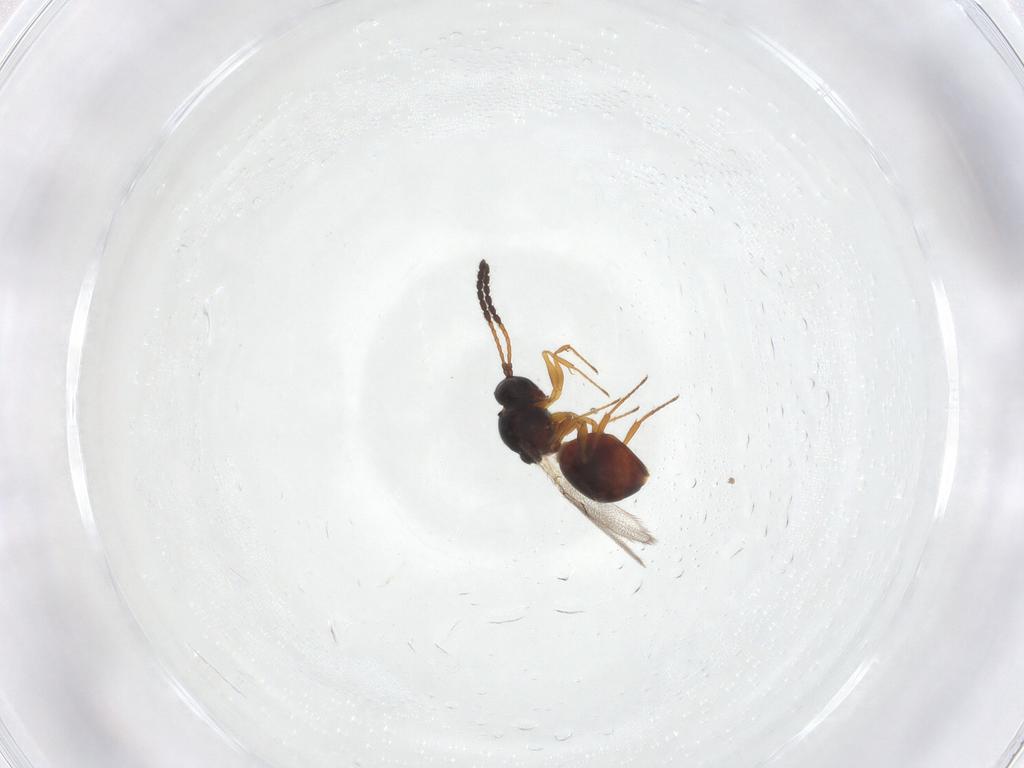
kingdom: Animalia
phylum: Arthropoda
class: Insecta
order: Hymenoptera
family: Figitidae
